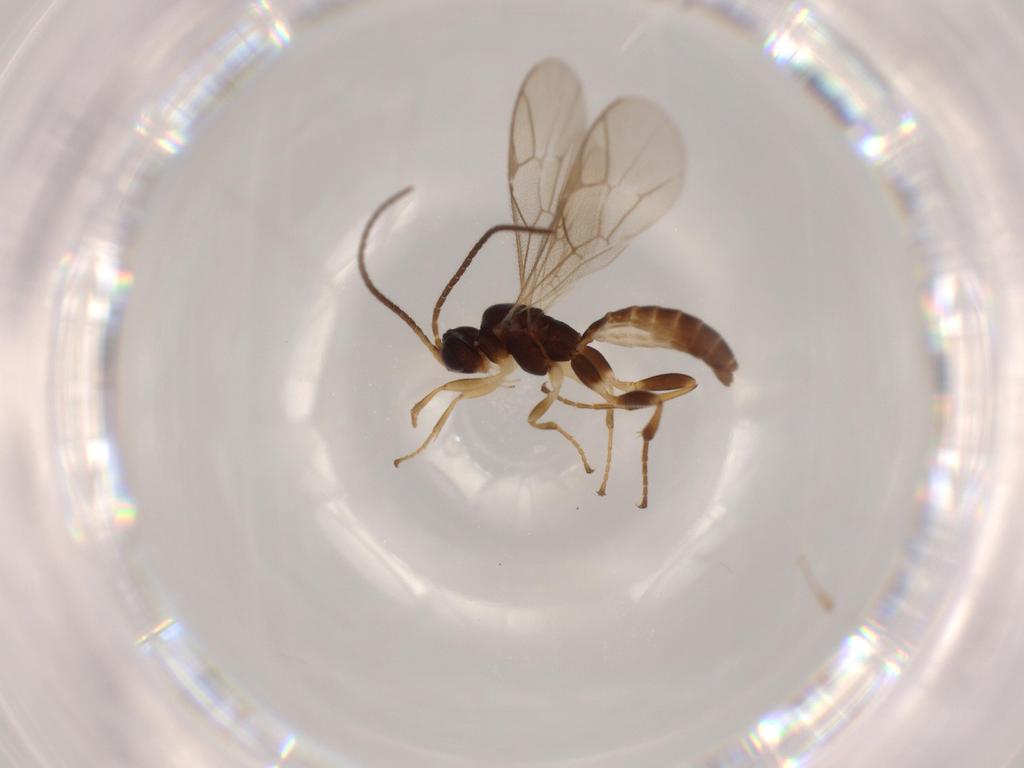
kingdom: Animalia
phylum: Arthropoda
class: Insecta
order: Hymenoptera
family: Ichneumonidae
